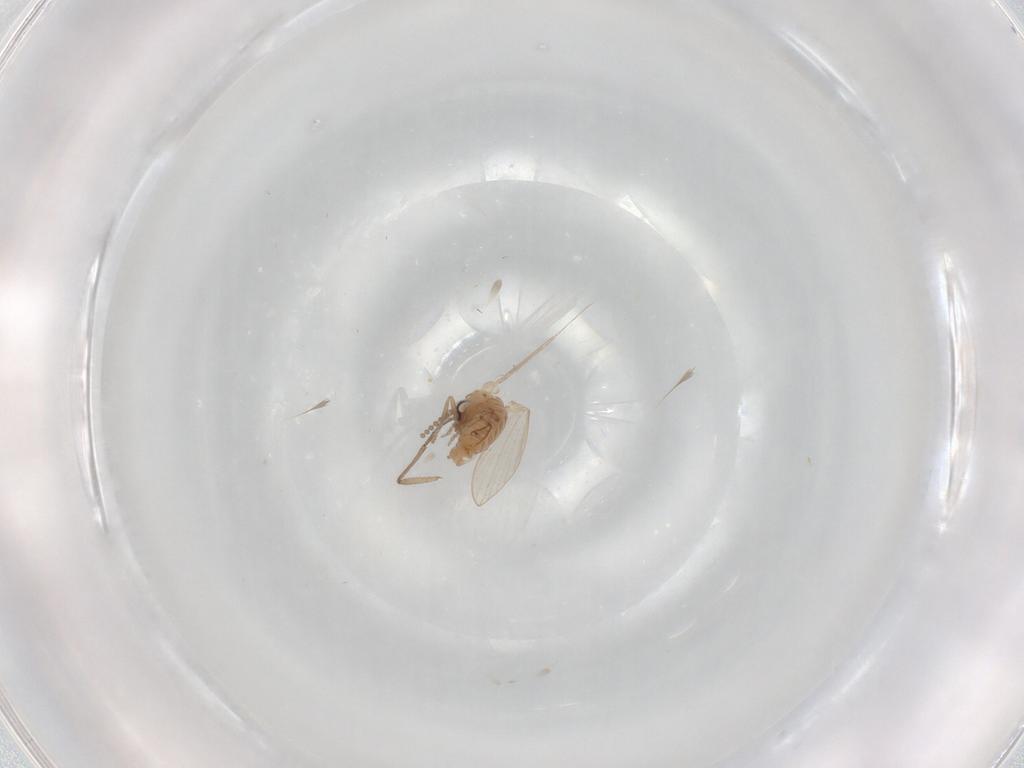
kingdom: Animalia
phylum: Arthropoda
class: Insecta
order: Diptera
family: Psychodidae
